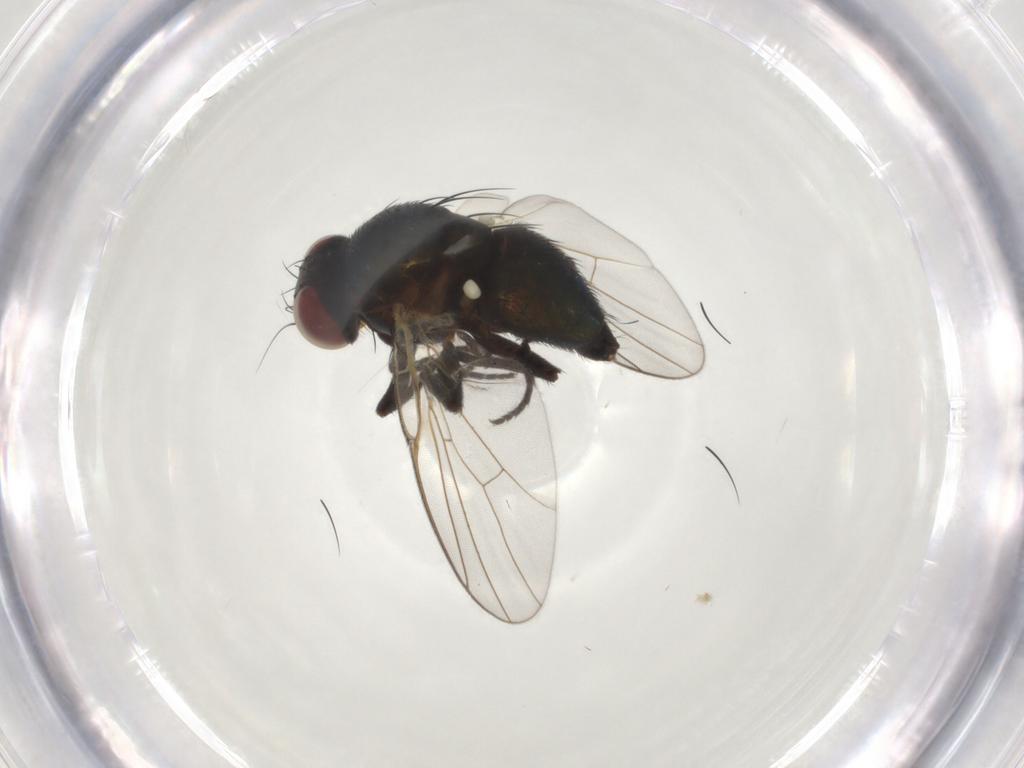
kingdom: Animalia
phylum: Arthropoda
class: Insecta
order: Diptera
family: Agromyzidae
